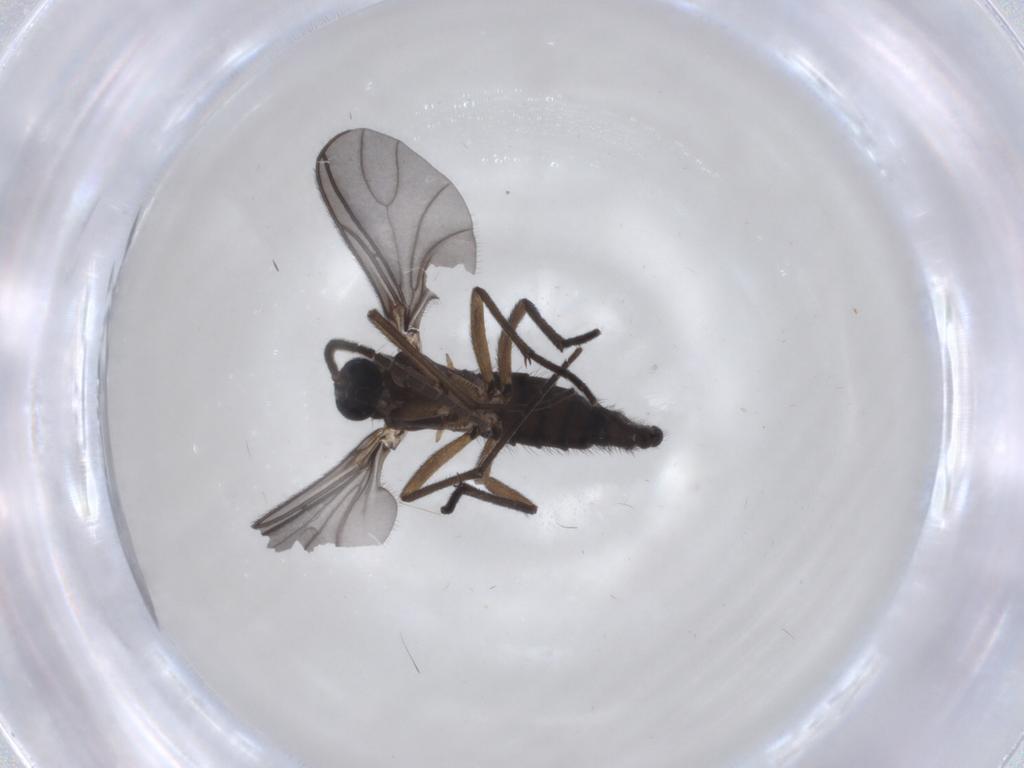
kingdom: Animalia
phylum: Arthropoda
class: Insecta
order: Diptera
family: Sciaridae
